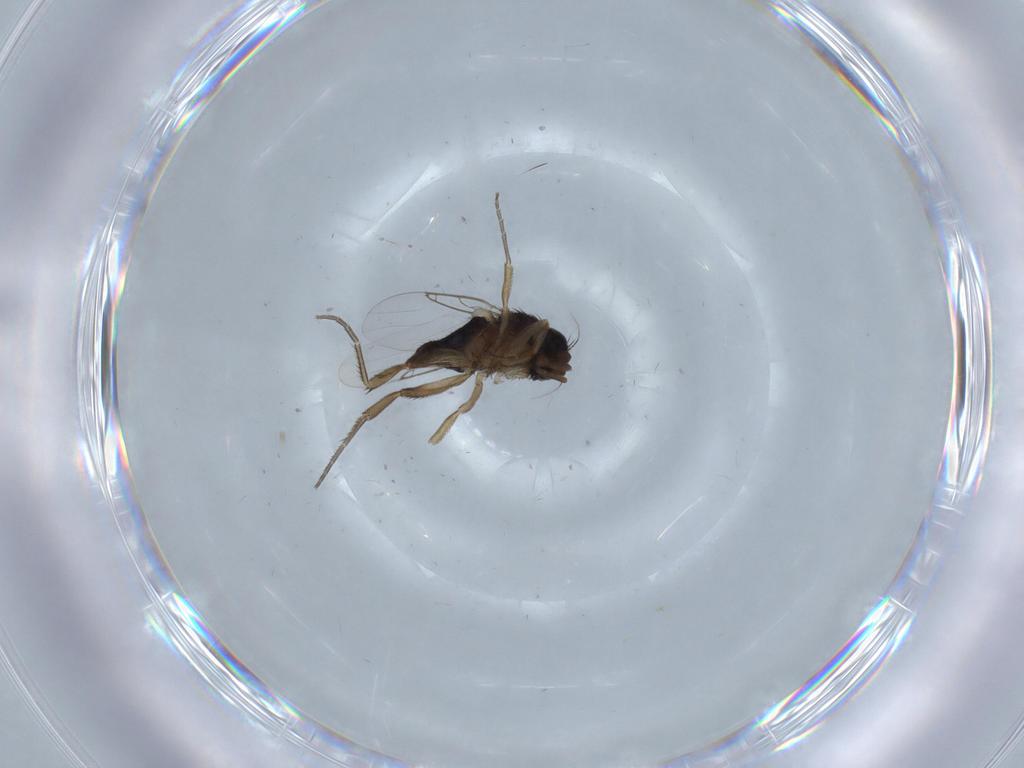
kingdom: Animalia
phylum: Arthropoda
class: Insecta
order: Diptera
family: Phoridae
